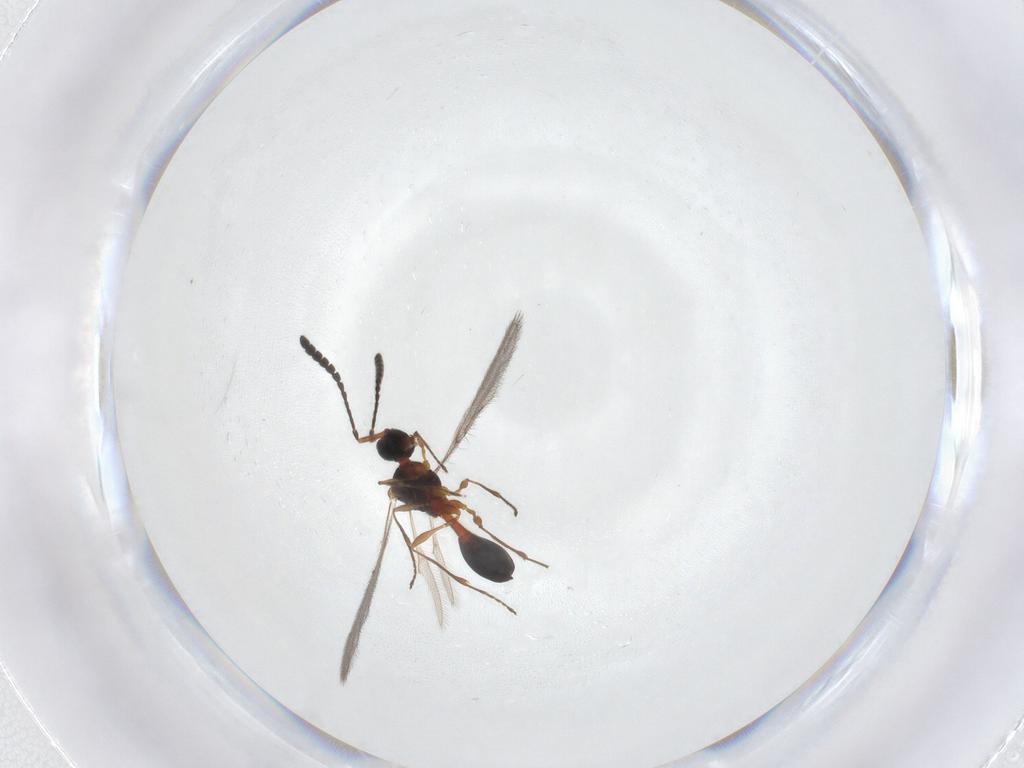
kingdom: Animalia
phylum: Arthropoda
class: Insecta
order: Hymenoptera
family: Diapriidae
